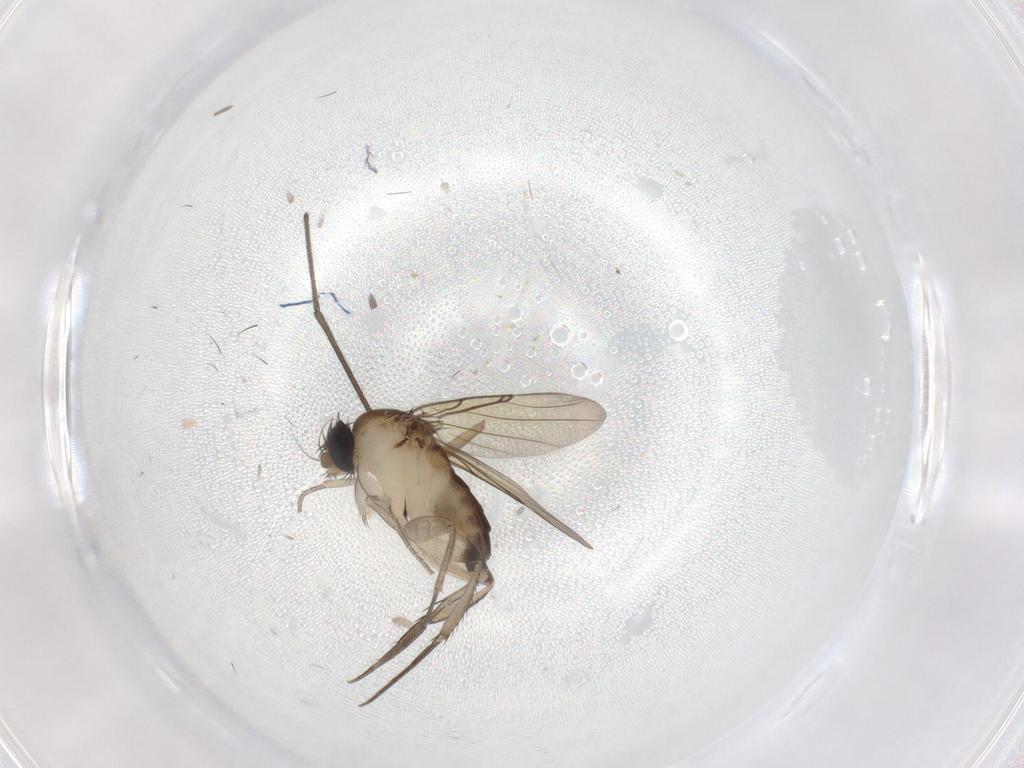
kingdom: Animalia
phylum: Arthropoda
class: Insecta
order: Diptera
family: Phoridae
